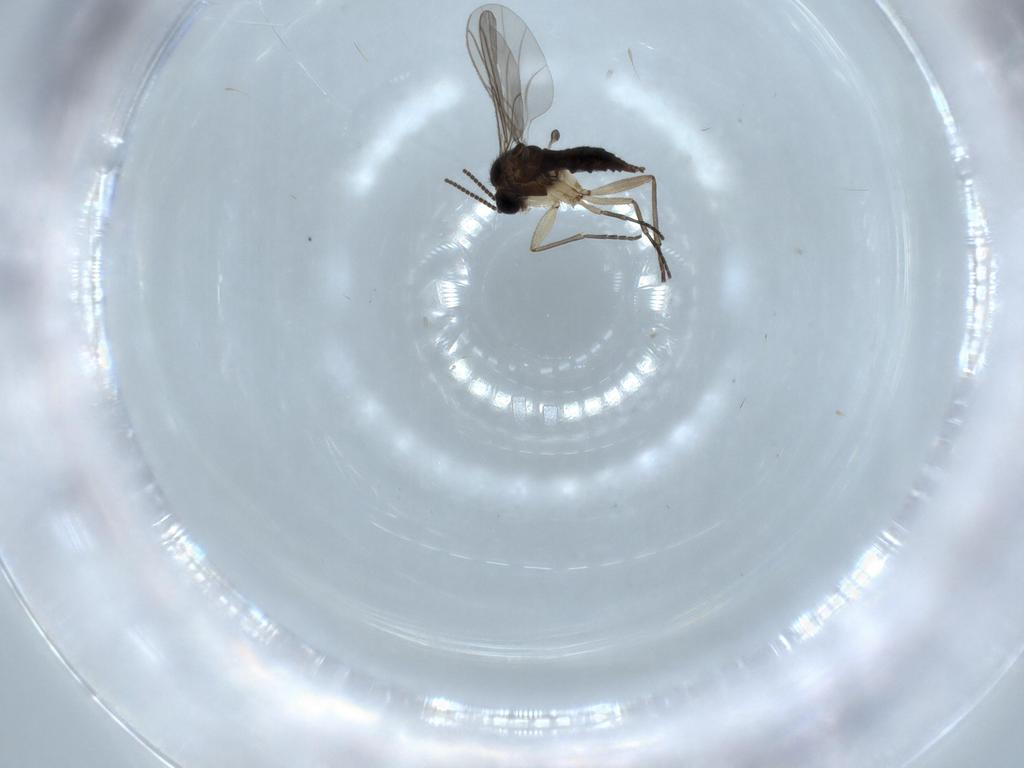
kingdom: Animalia
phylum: Arthropoda
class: Insecta
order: Diptera
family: Sciaridae
